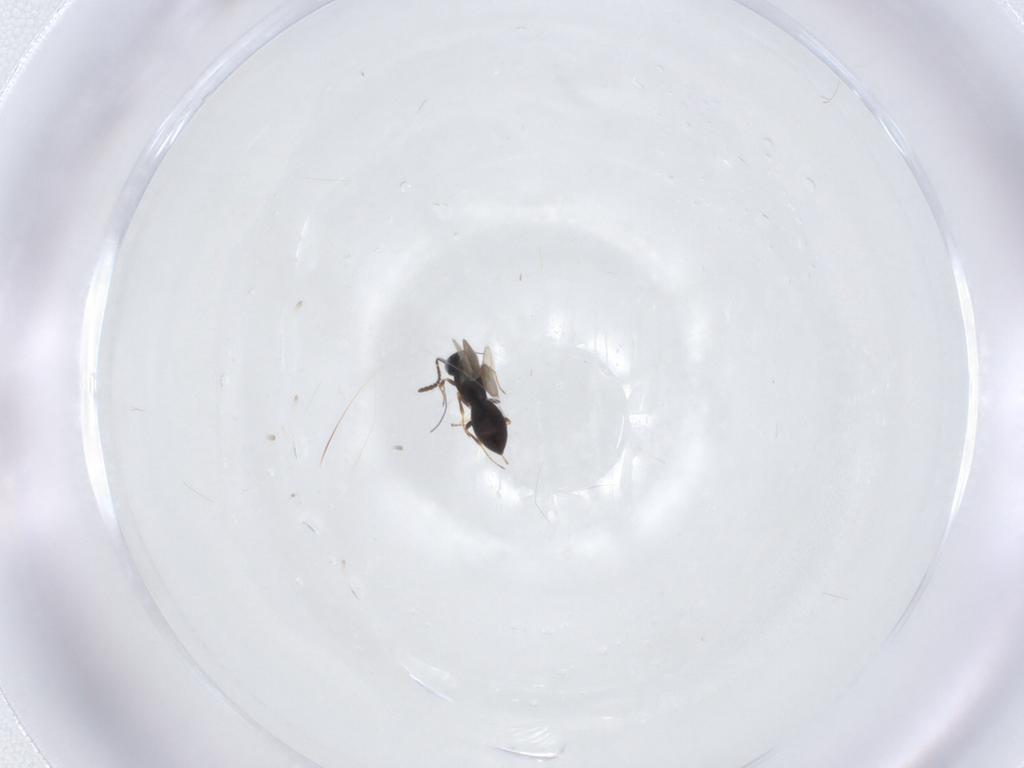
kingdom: Animalia
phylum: Arthropoda
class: Insecta
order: Hymenoptera
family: Scelionidae
